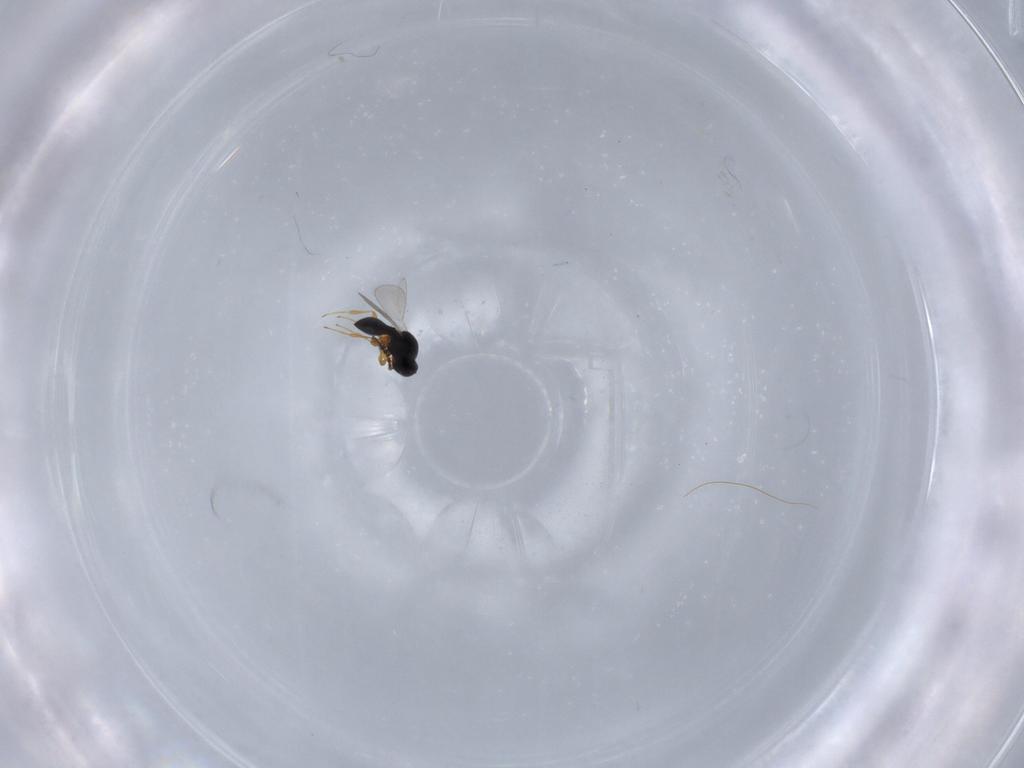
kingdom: Animalia
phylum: Arthropoda
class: Insecta
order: Hymenoptera
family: Platygastridae
